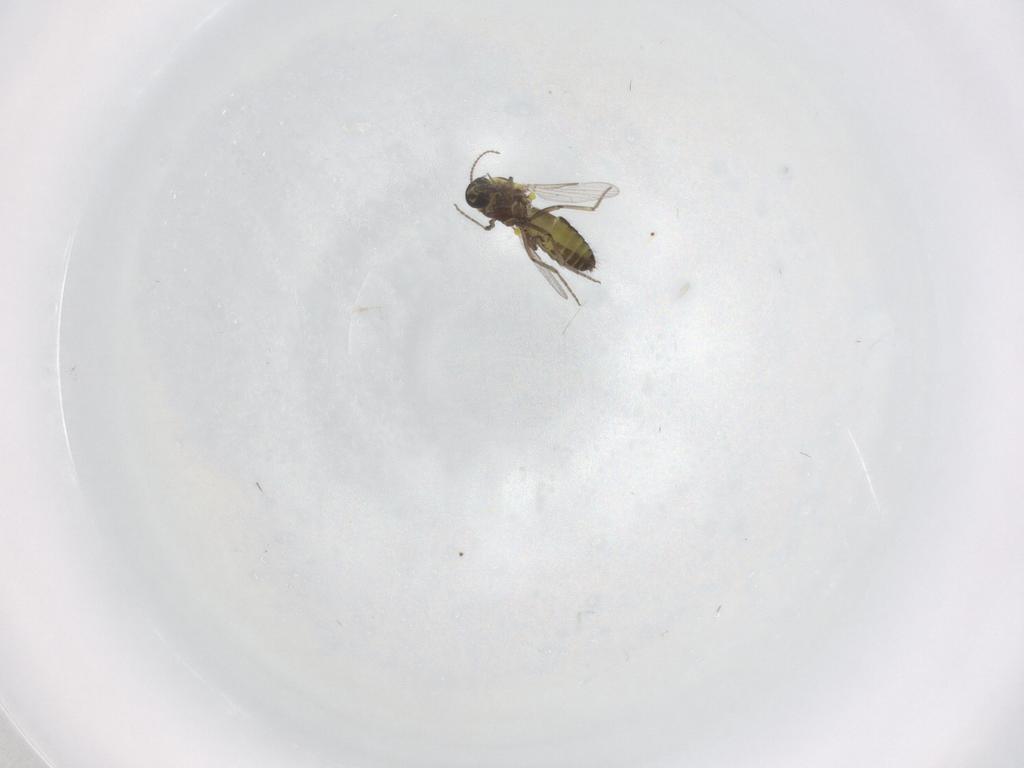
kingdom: Animalia
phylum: Arthropoda
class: Insecta
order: Diptera
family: Ceratopogonidae
